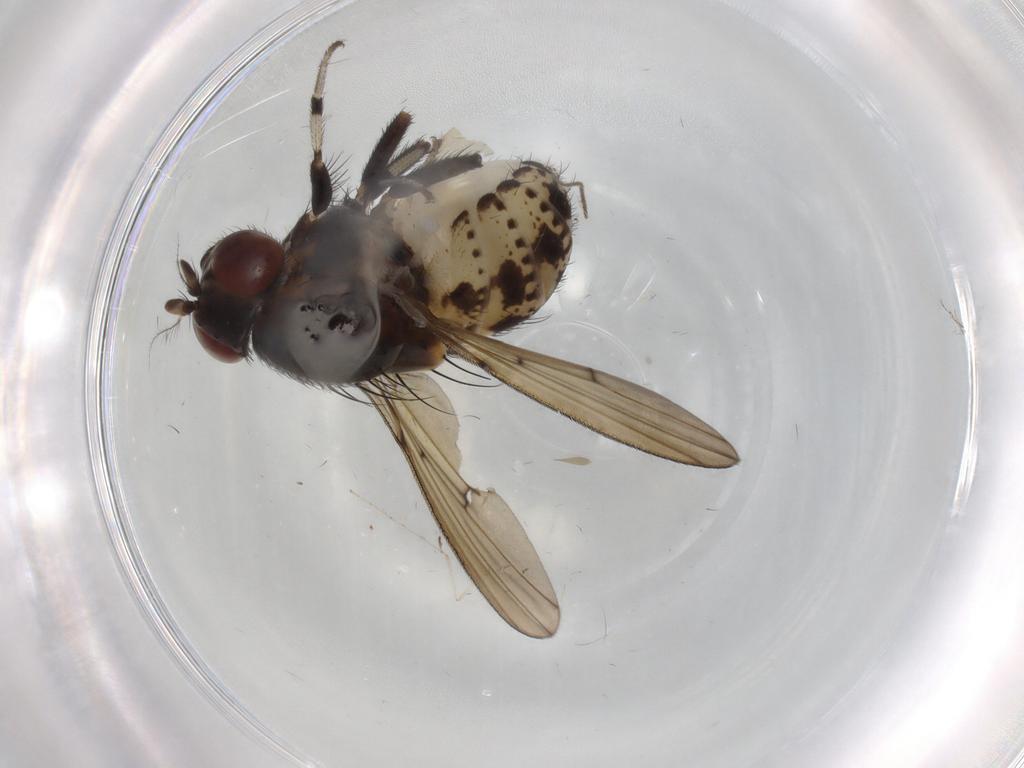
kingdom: Animalia
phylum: Arthropoda
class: Insecta
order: Diptera
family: Lauxaniidae
